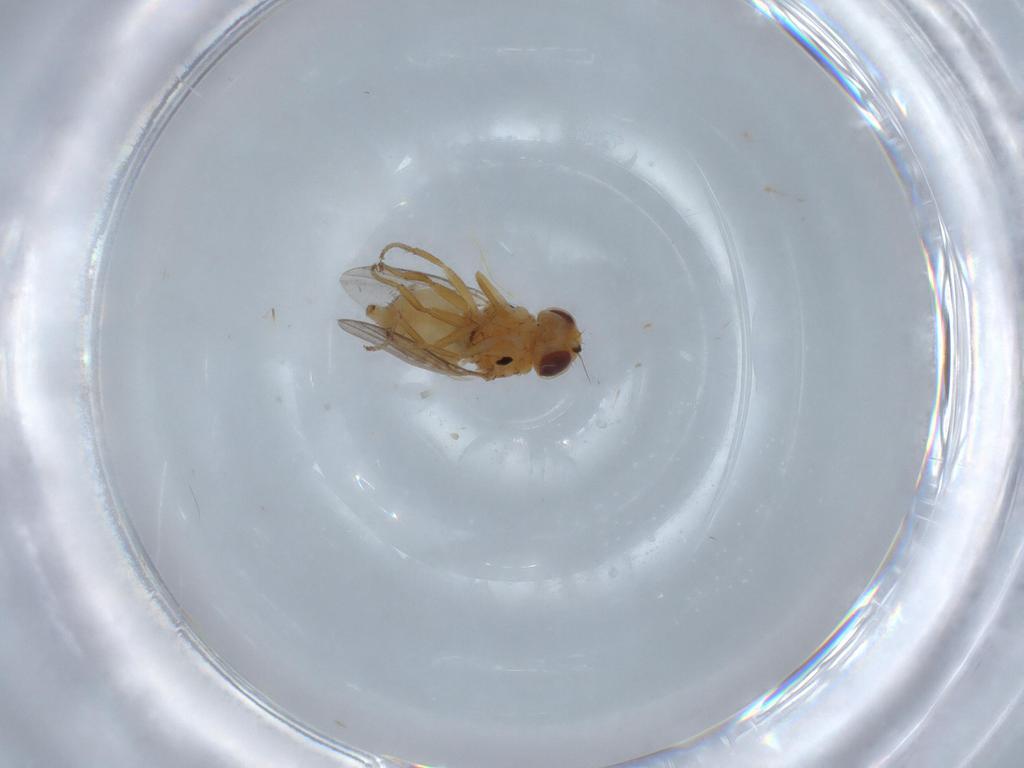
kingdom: Animalia
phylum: Arthropoda
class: Insecta
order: Diptera
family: Chloropidae
